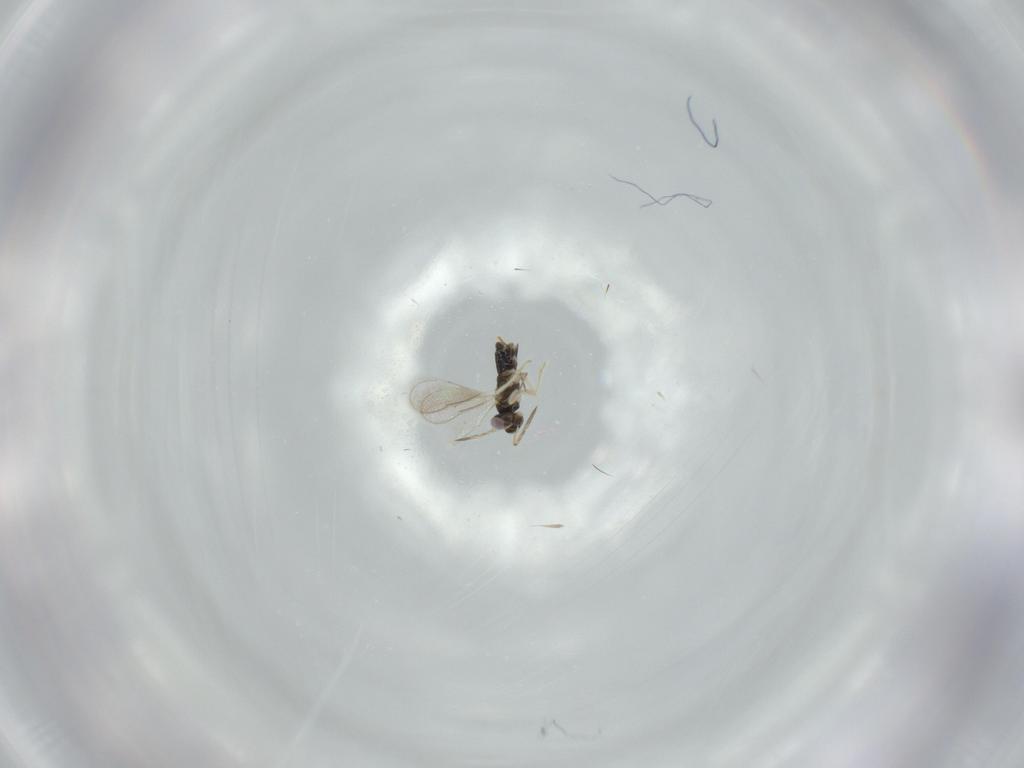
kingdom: Animalia
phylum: Arthropoda
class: Insecta
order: Hymenoptera
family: Aphelinidae
